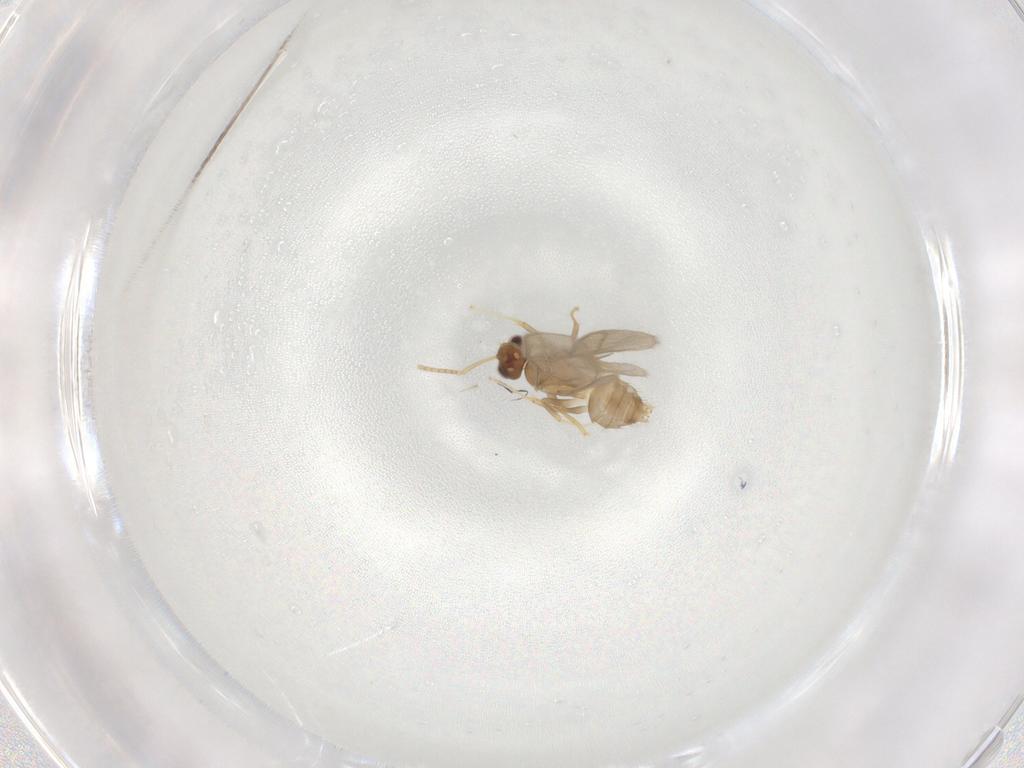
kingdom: Animalia
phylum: Arthropoda
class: Insecta
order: Hymenoptera
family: Formicidae
